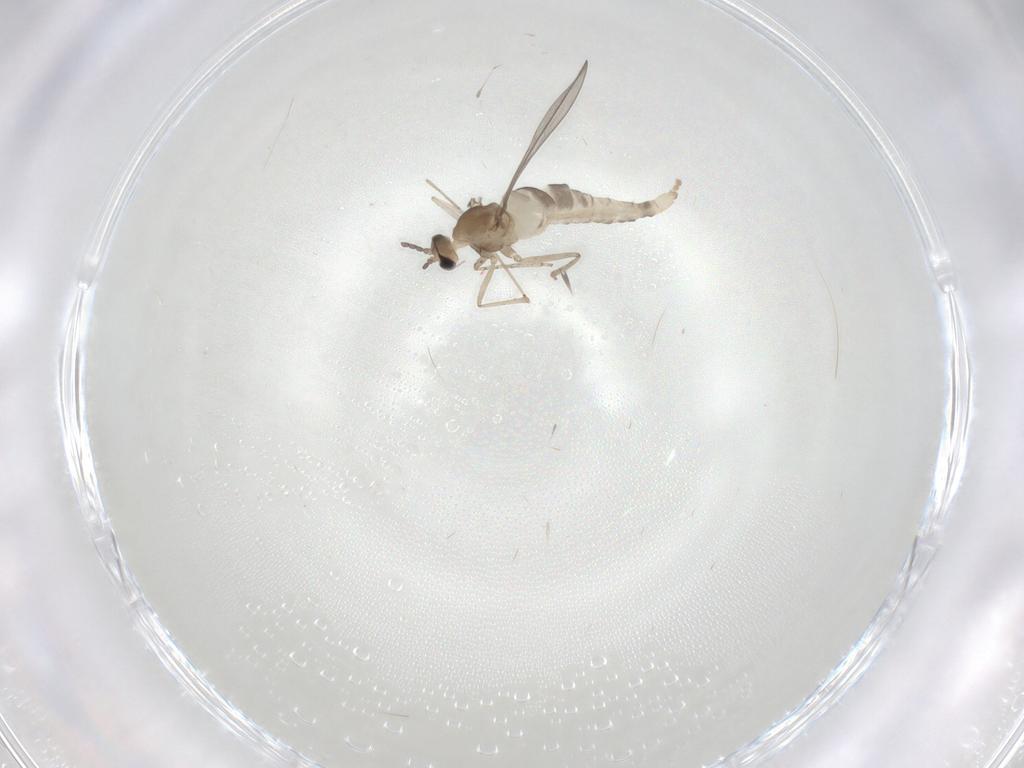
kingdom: Animalia
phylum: Arthropoda
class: Insecta
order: Diptera
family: Cecidomyiidae
